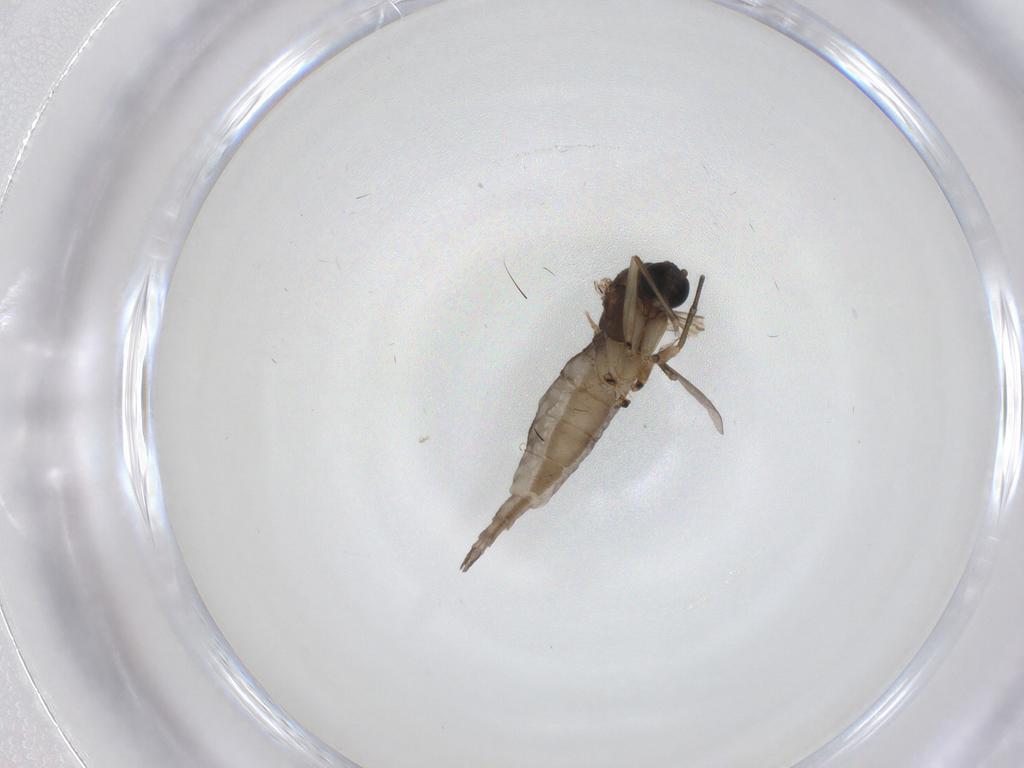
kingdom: Animalia
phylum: Arthropoda
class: Insecta
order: Diptera
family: Sciaridae
